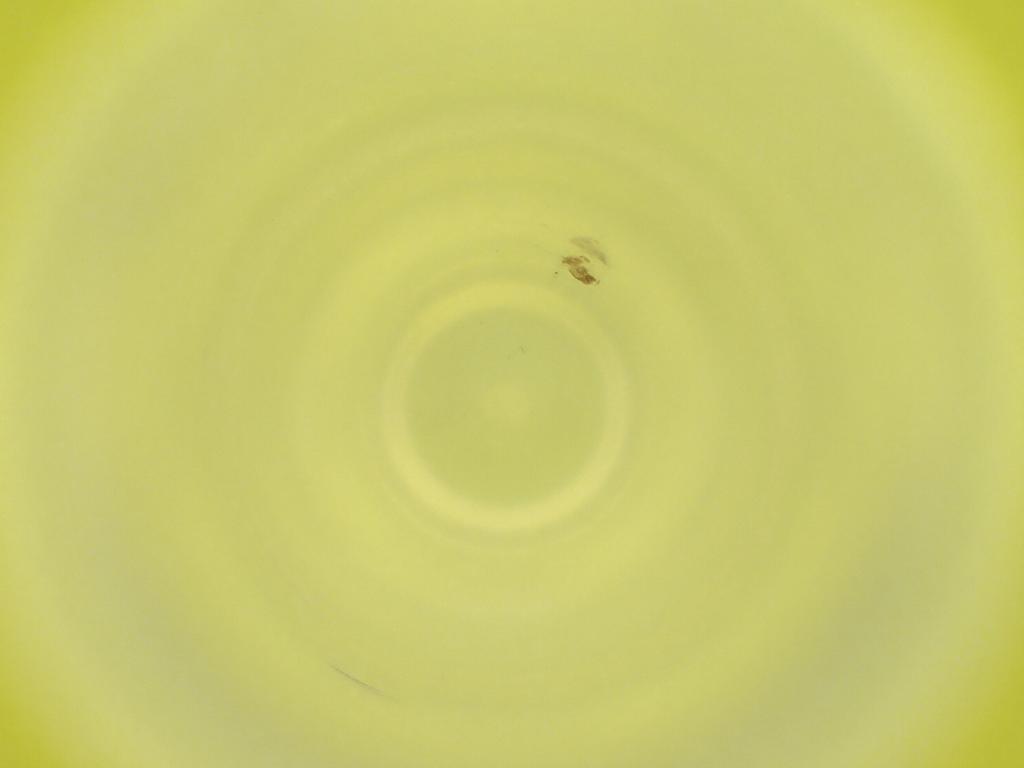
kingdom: Animalia
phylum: Arthropoda
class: Insecta
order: Diptera
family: Cecidomyiidae
